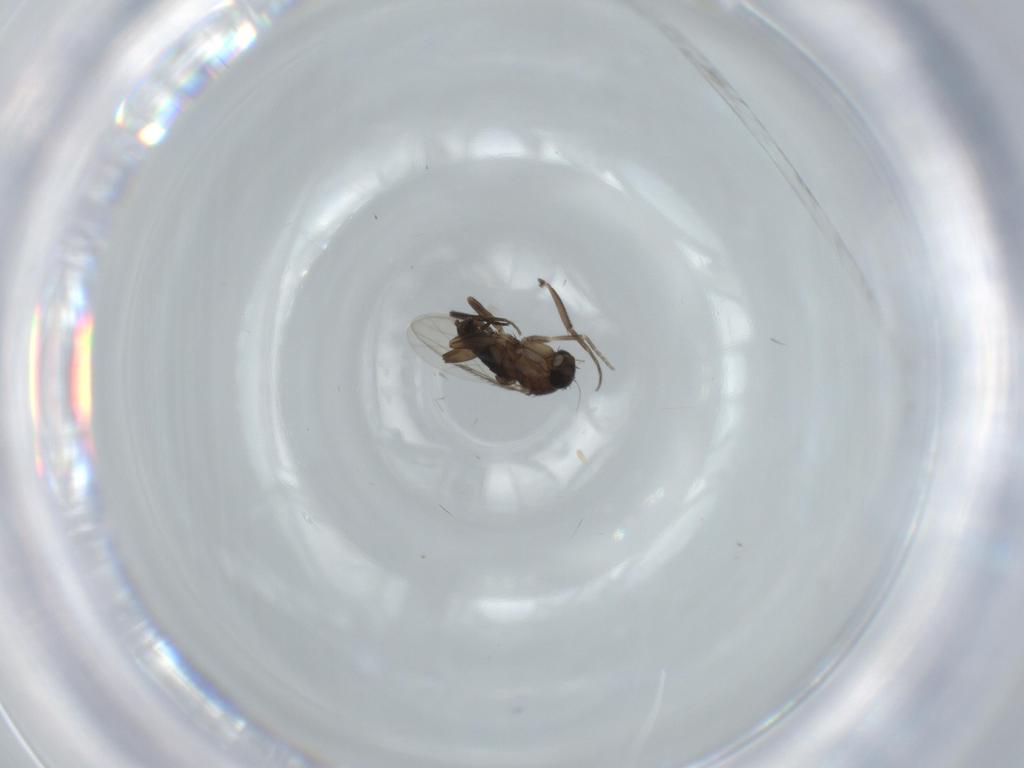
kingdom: Animalia
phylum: Arthropoda
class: Insecta
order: Diptera
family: Phoridae
